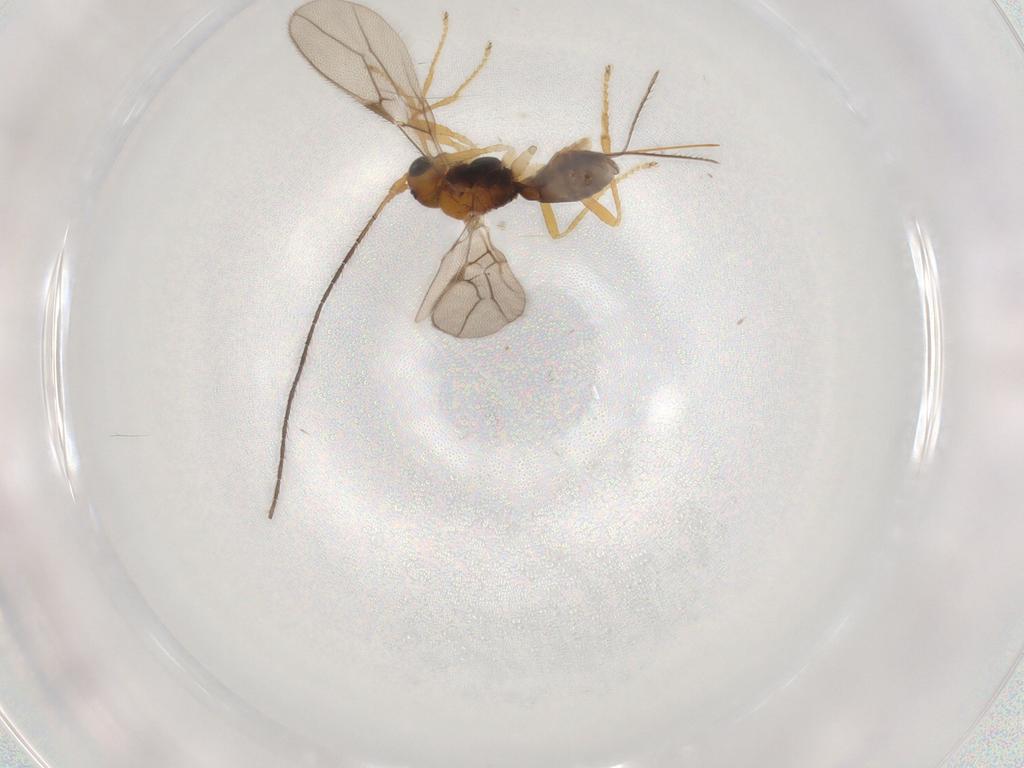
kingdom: Animalia
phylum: Arthropoda
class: Insecta
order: Hymenoptera
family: Braconidae
